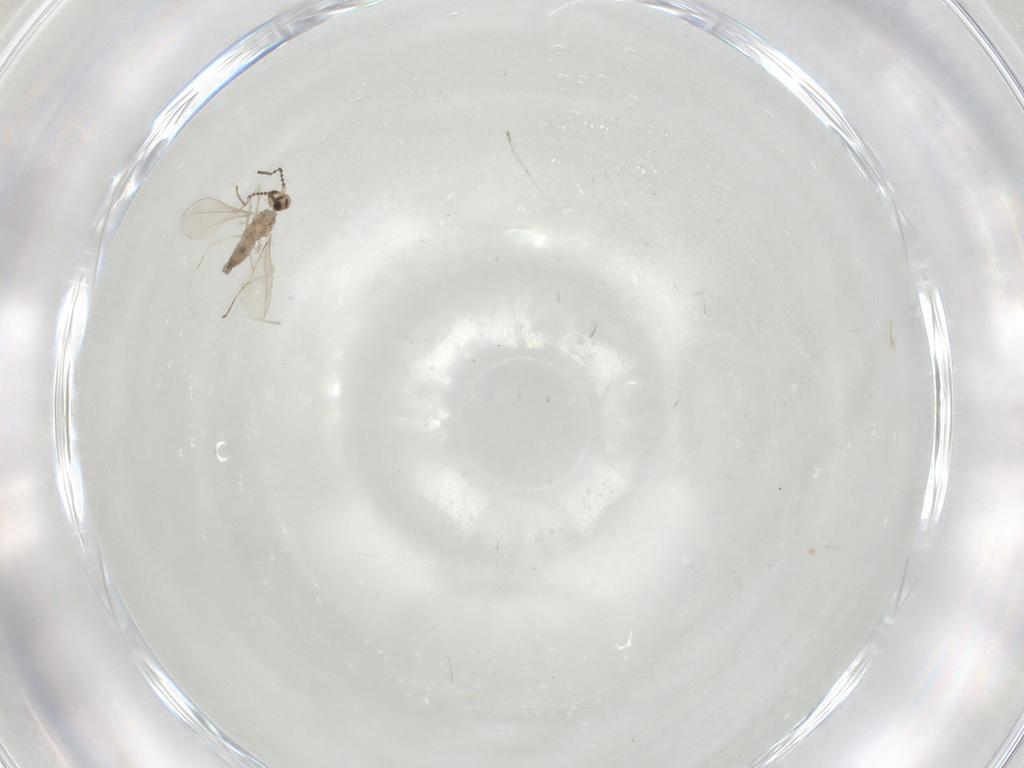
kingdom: Animalia
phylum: Arthropoda
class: Insecta
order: Diptera
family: Cecidomyiidae
